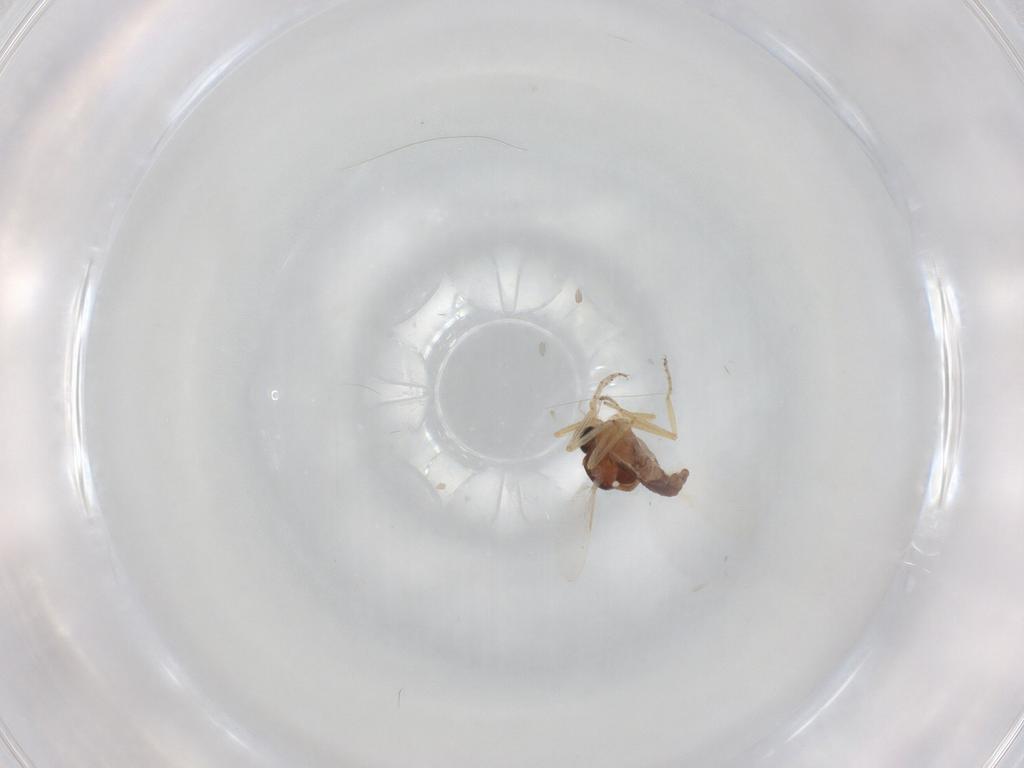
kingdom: Animalia
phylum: Arthropoda
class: Insecta
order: Diptera
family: Ceratopogonidae
